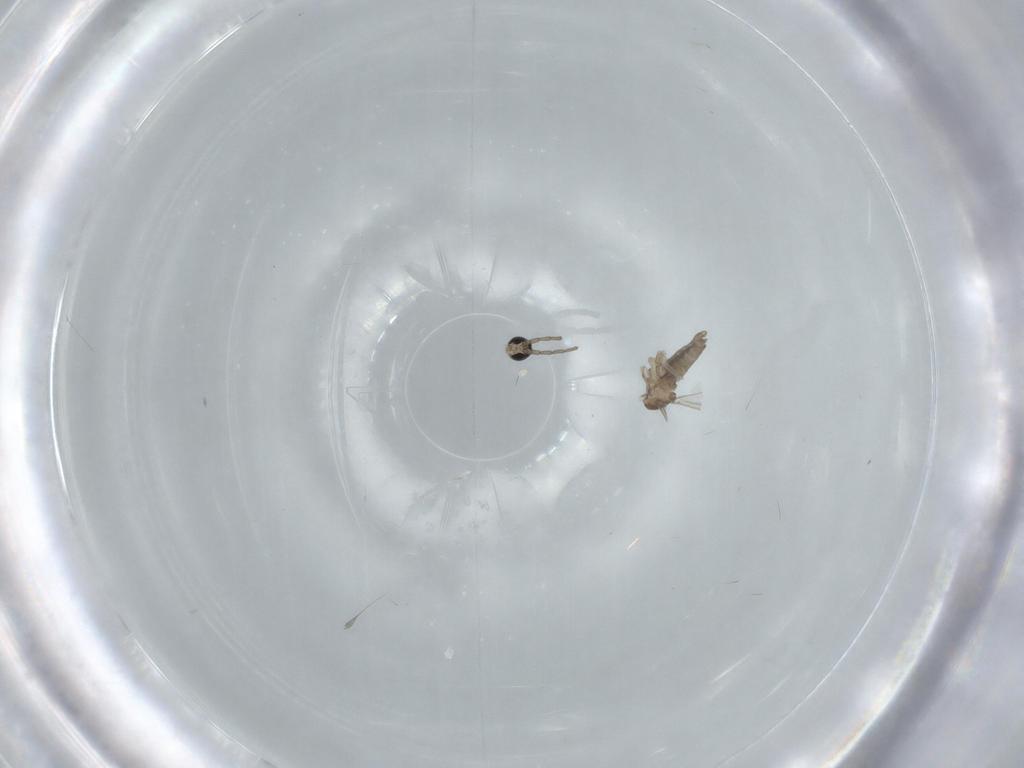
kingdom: Animalia
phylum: Arthropoda
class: Insecta
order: Diptera
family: Cecidomyiidae
